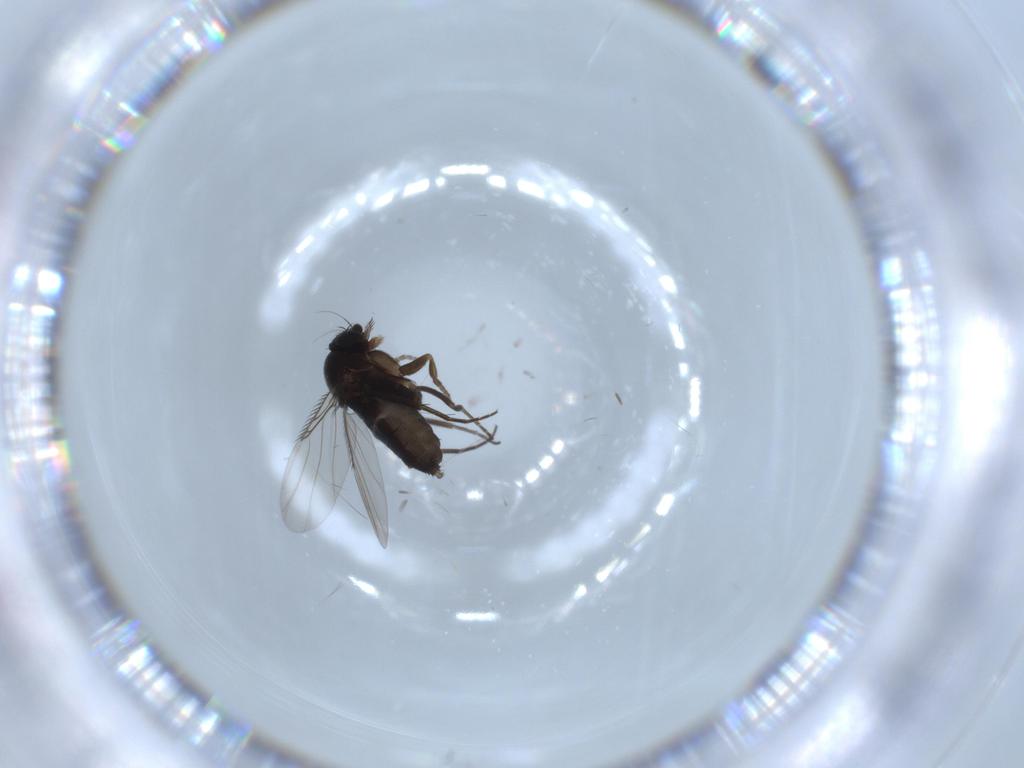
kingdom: Animalia
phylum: Arthropoda
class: Insecta
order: Diptera
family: Phoridae
